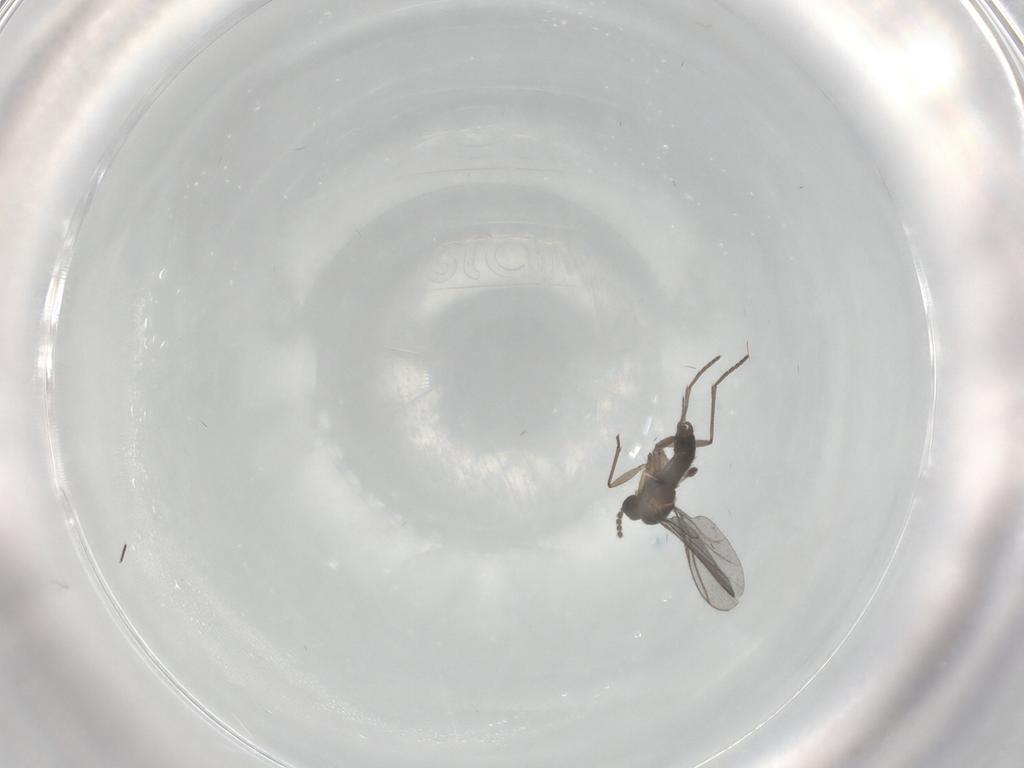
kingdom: Animalia
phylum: Arthropoda
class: Insecta
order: Diptera
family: Psychodidae
